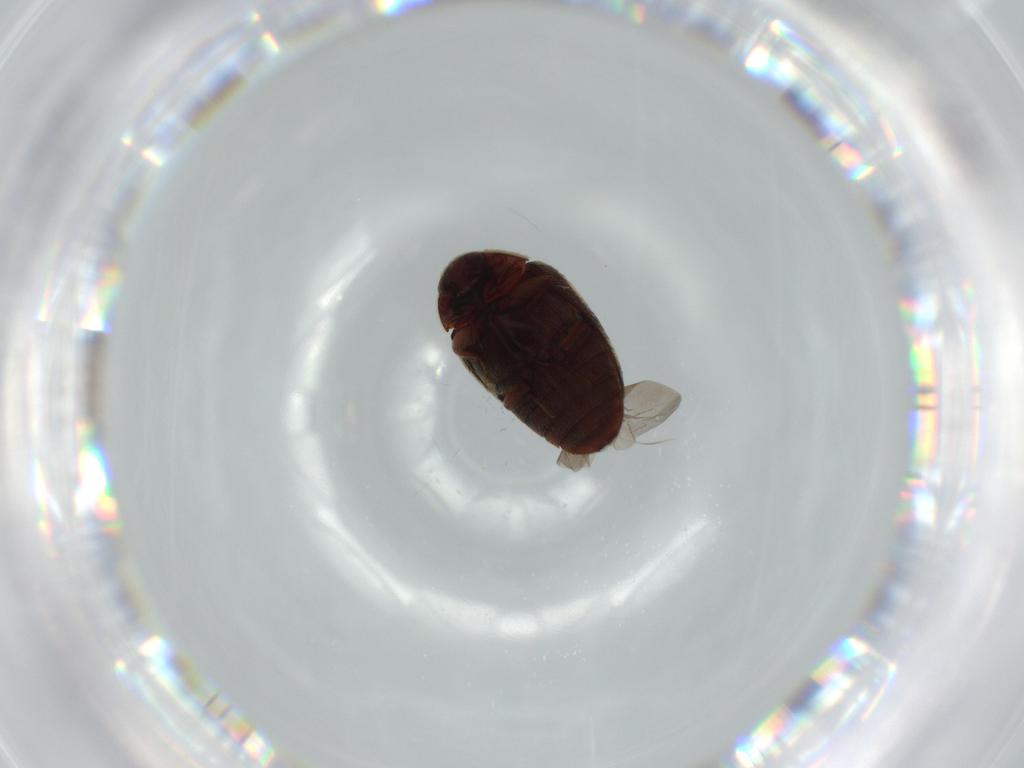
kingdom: Animalia
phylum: Arthropoda
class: Insecta
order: Coleoptera
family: Dermestidae
